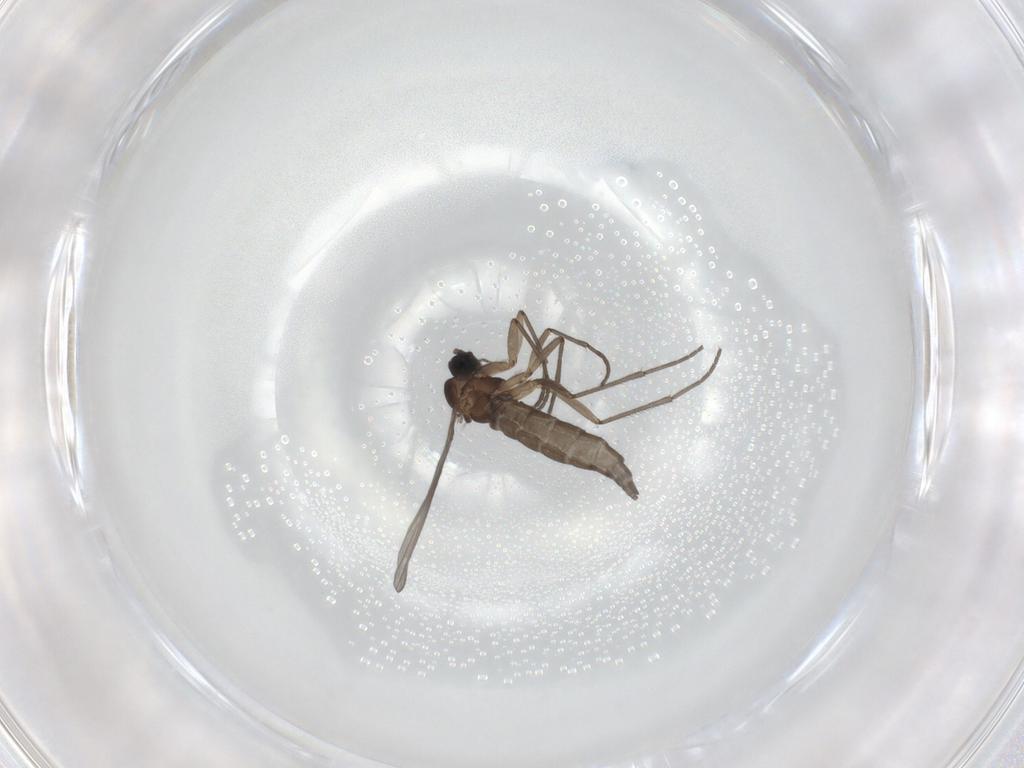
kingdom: Animalia
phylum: Arthropoda
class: Insecta
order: Diptera
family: Sciaridae
